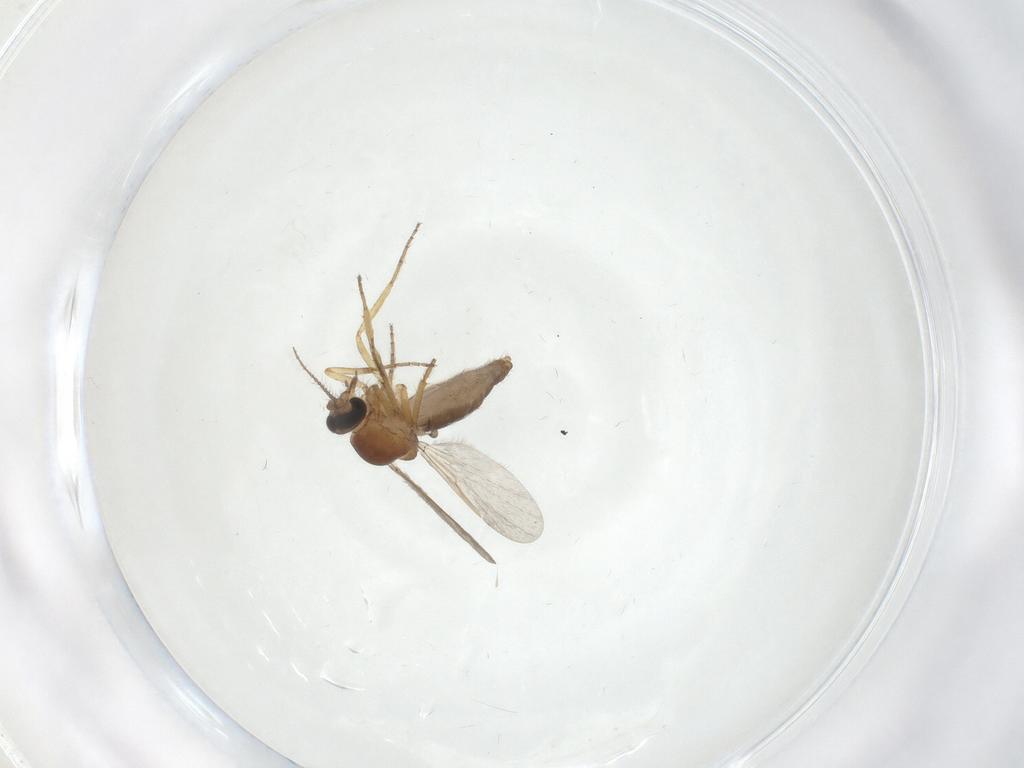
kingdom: Animalia
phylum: Arthropoda
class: Insecta
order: Diptera
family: Ceratopogonidae
